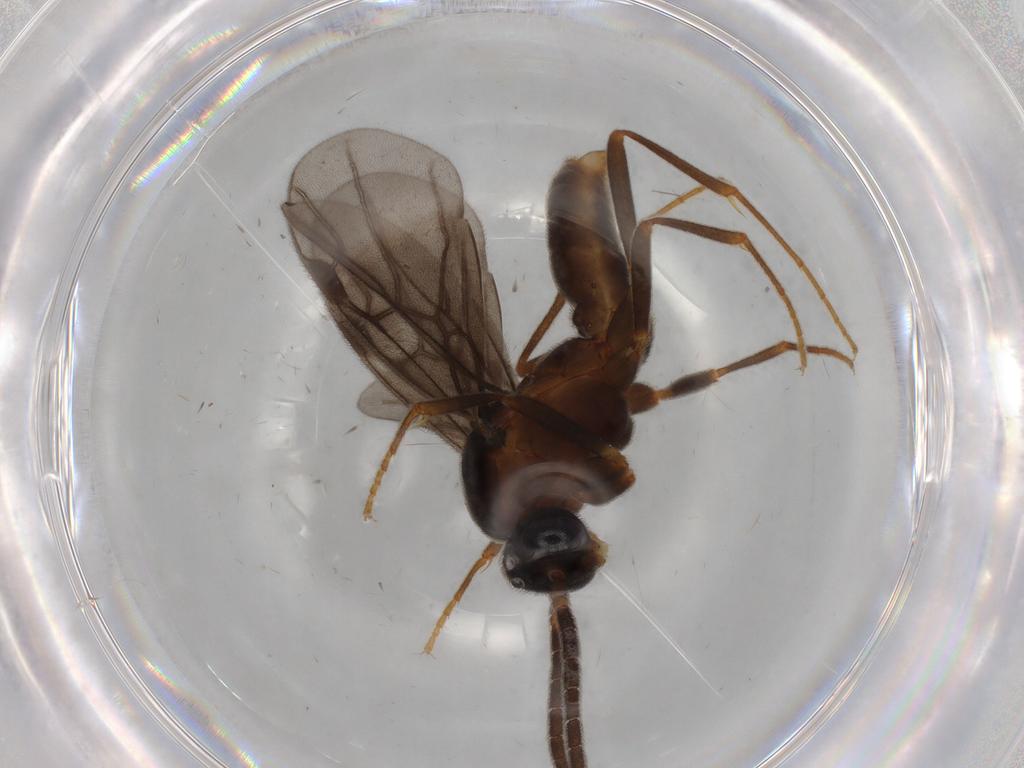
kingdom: Animalia
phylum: Arthropoda
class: Insecta
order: Hymenoptera
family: Formicidae
